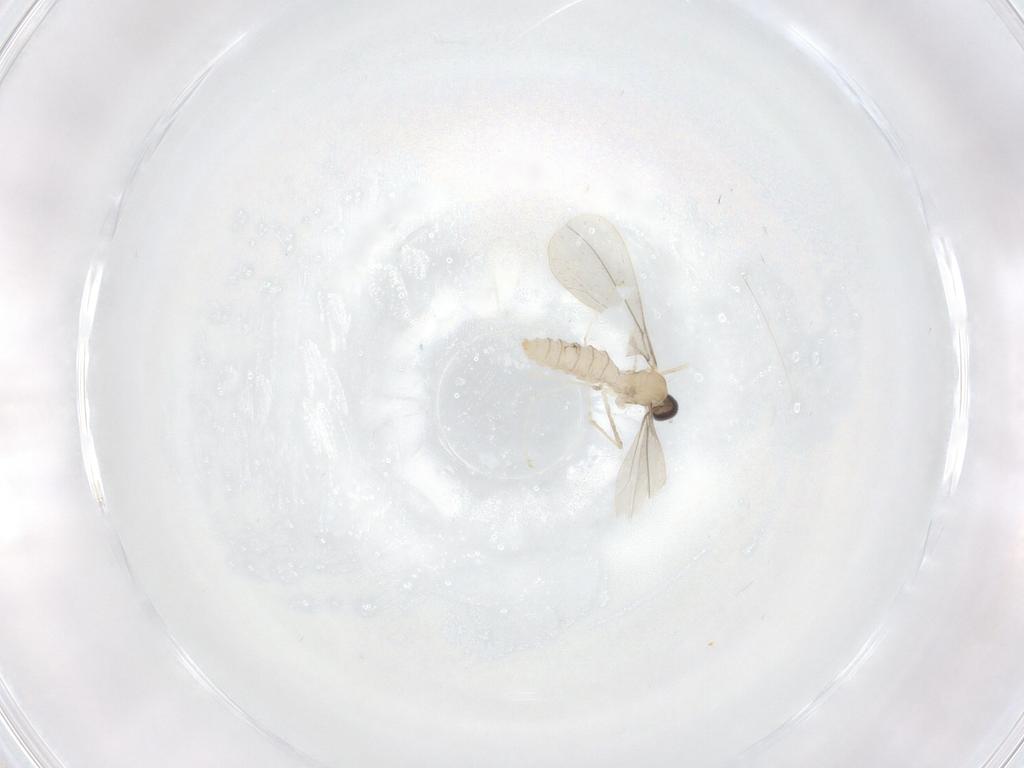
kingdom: Animalia
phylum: Arthropoda
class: Insecta
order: Diptera
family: Cecidomyiidae
